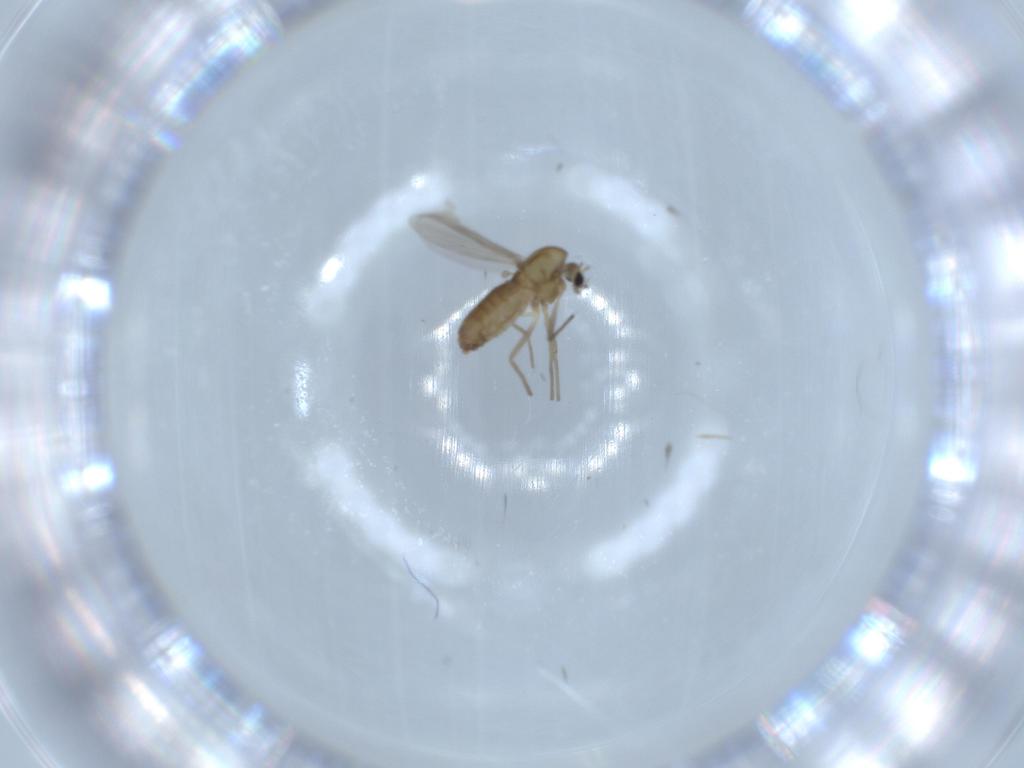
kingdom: Animalia
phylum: Arthropoda
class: Insecta
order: Diptera
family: Chironomidae
